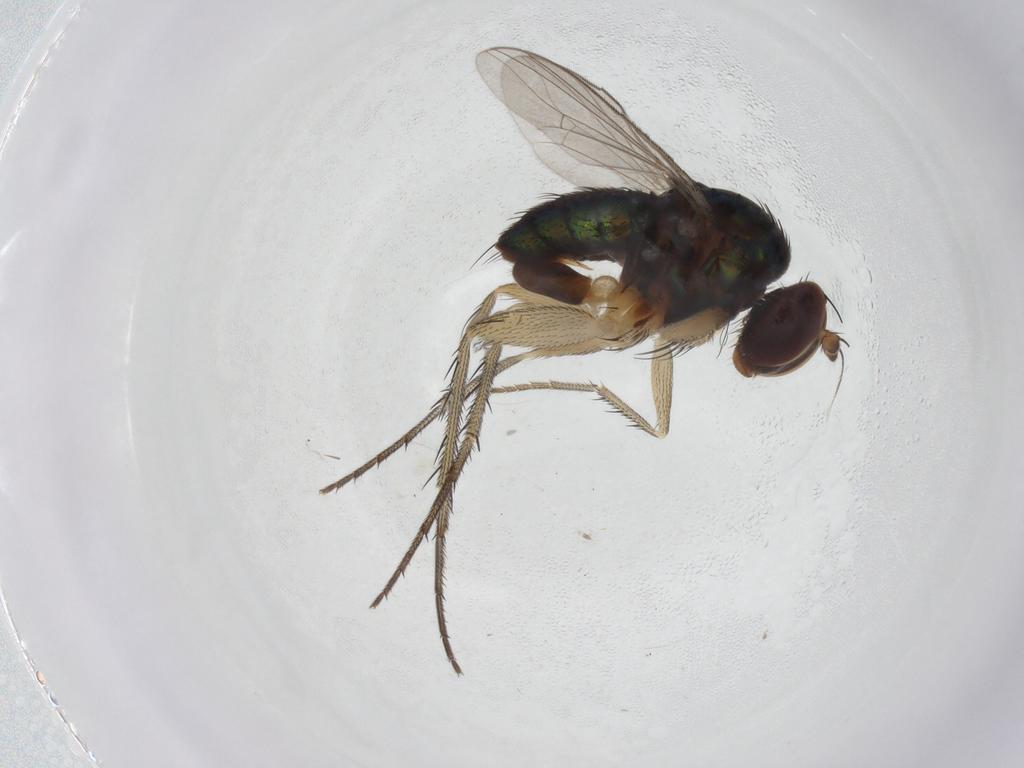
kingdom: Animalia
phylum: Arthropoda
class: Insecta
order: Diptera
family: Dolichopodidae
